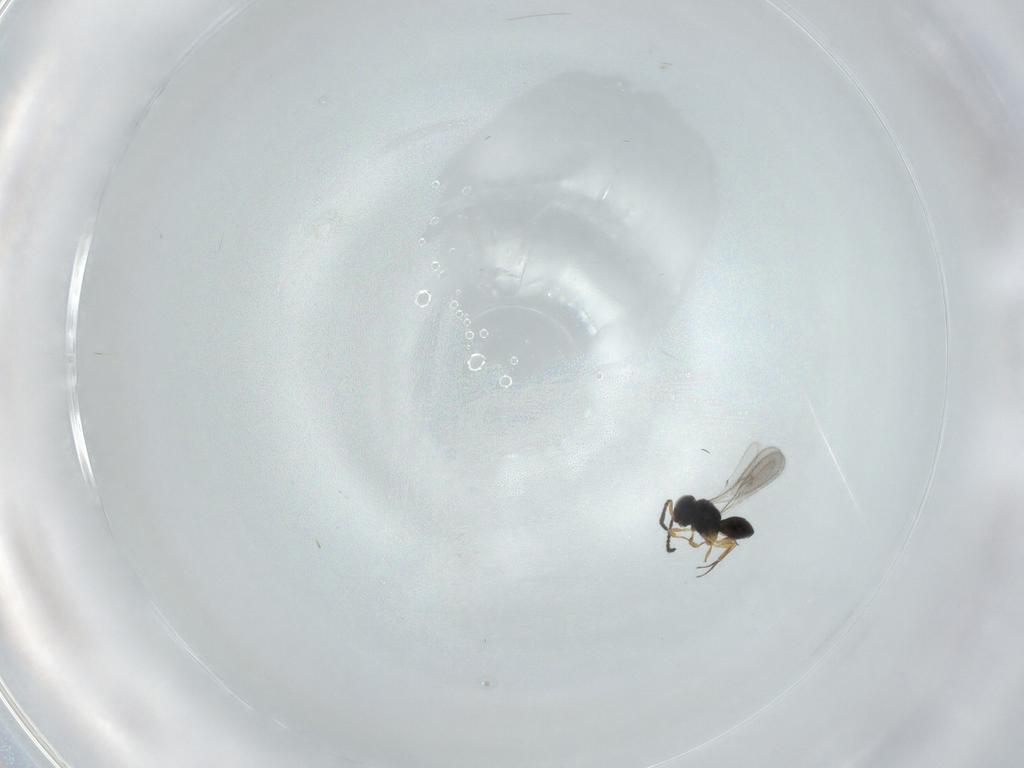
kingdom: Animalia
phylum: Arthropoda
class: Insecta
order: Hymenoptera
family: Scelionidae
